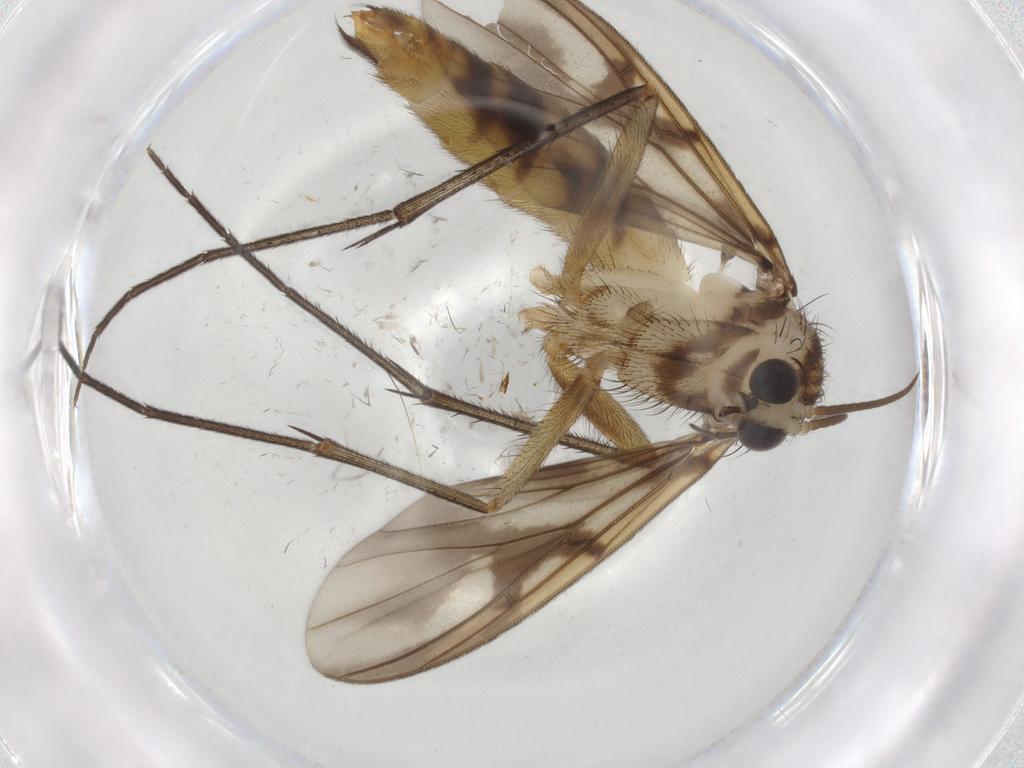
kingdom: Animalia
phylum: Arthropoda
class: Insecta
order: Diptera
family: Mycetophilidae
